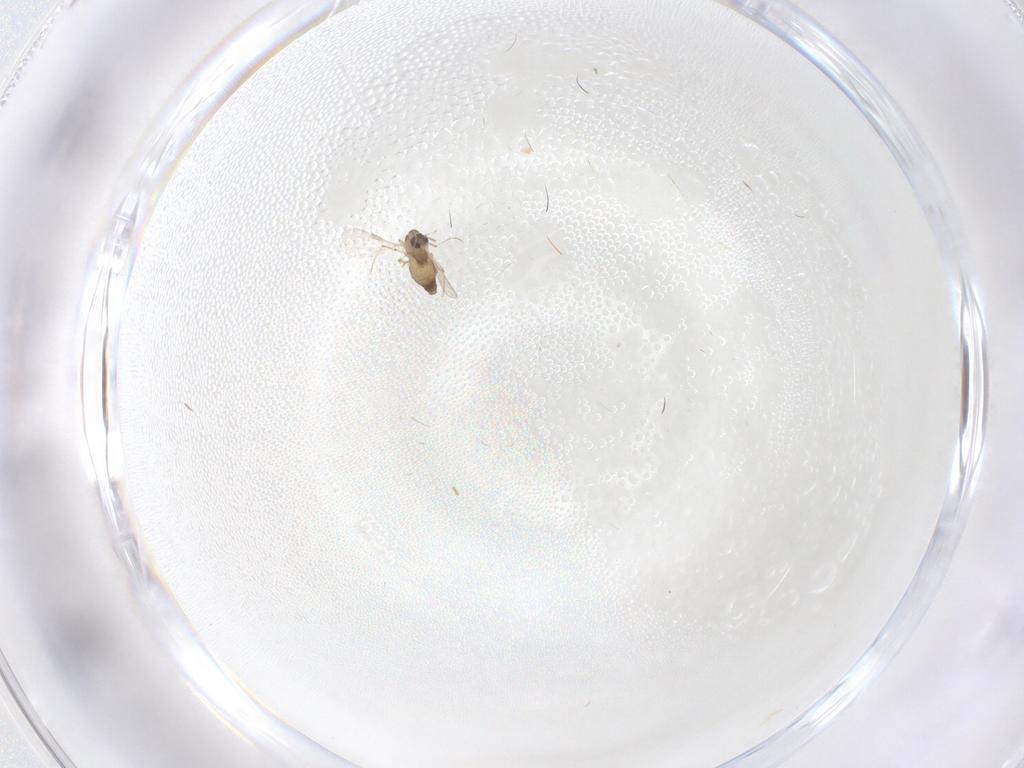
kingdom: Animalia
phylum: Arthropoda
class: Insecta
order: Diptera
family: Chironomidae
